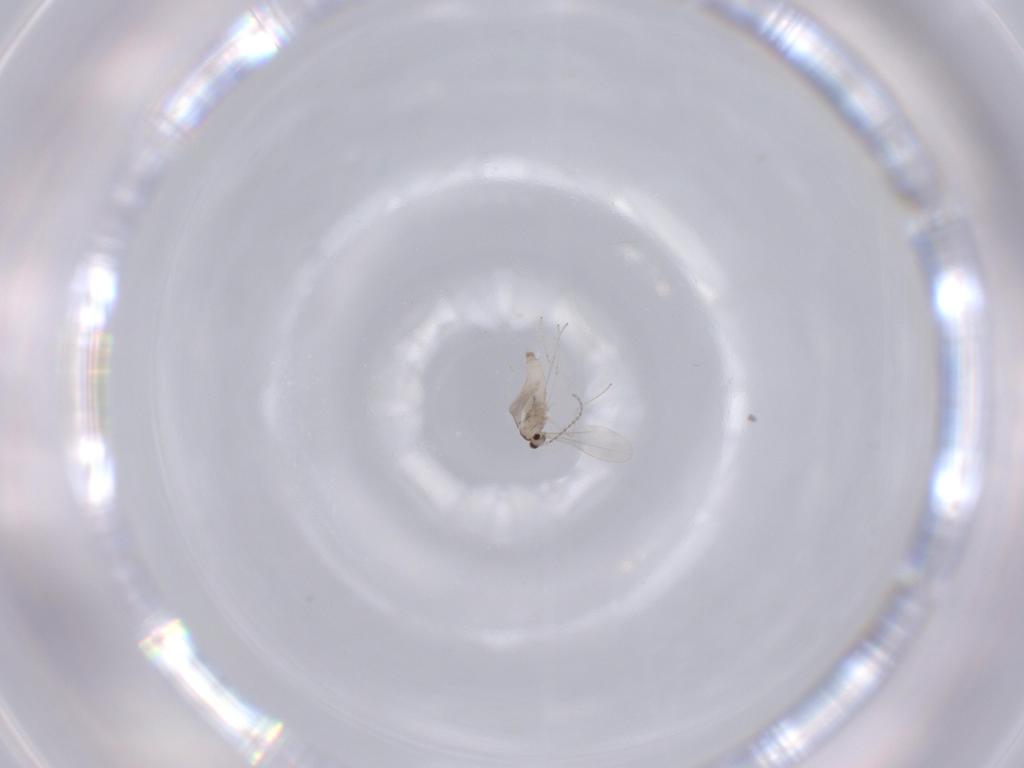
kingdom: Animalia
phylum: Arthropoda
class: Insecta
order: Diptera
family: Cecidomyiidae
